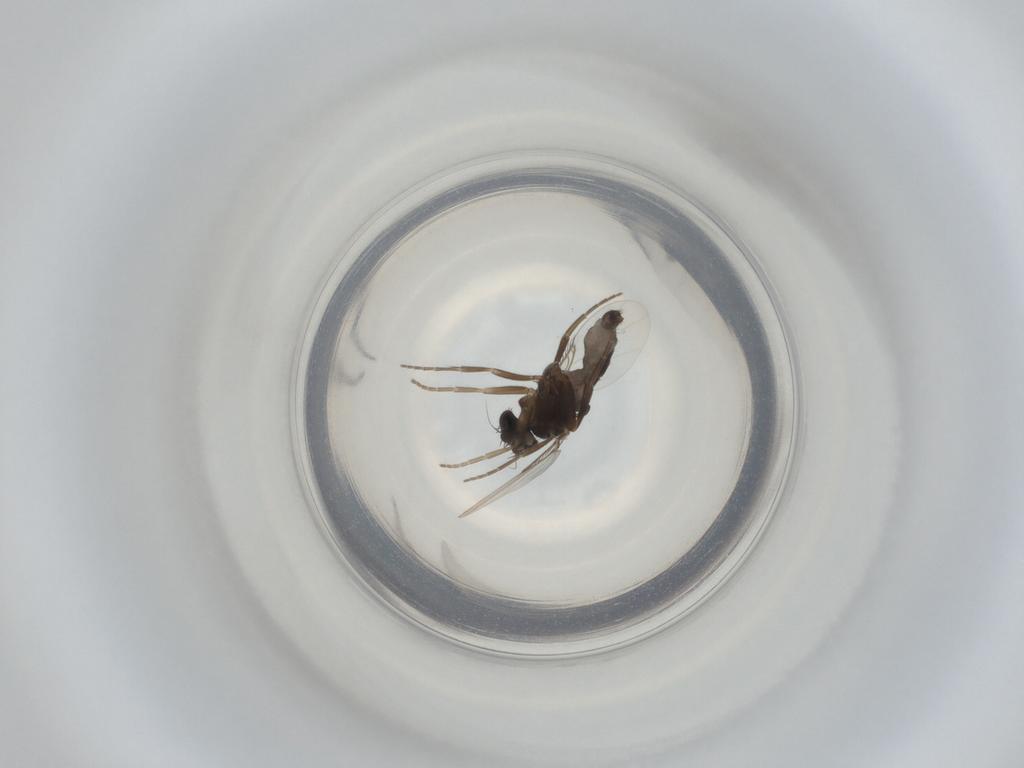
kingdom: Animalia
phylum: Arthropoda
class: Insecta
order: Diptera
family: Phoridae
